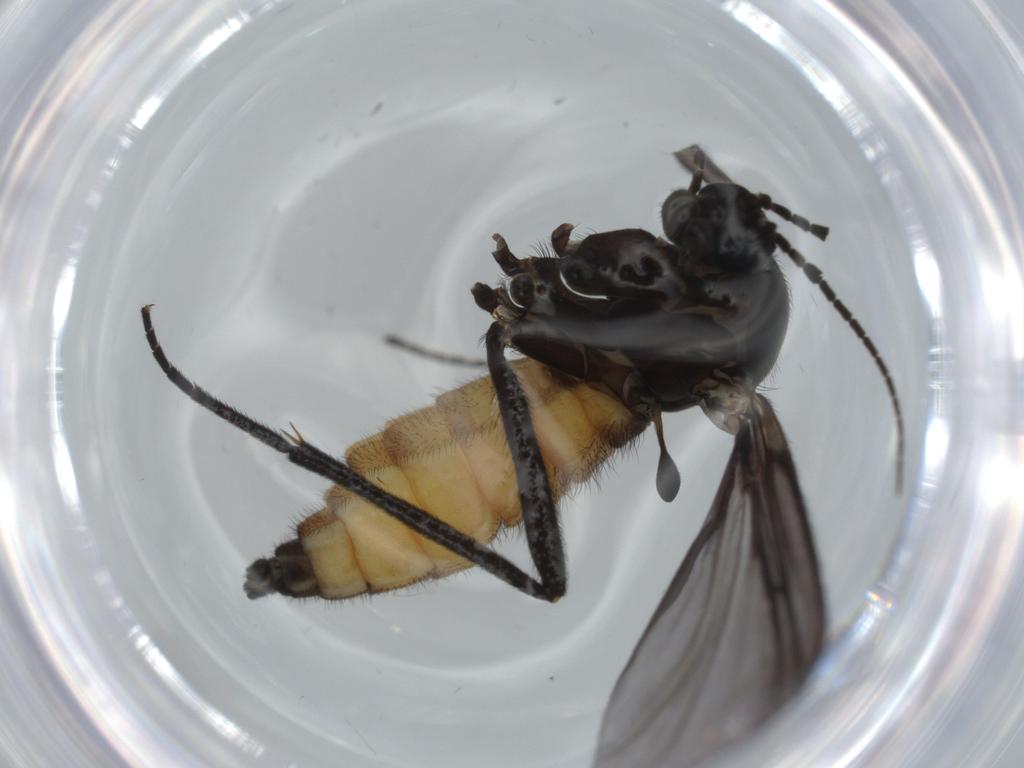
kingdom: Animalia
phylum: Arthropoda
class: Insecta
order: Diptera
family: Sciaridae
